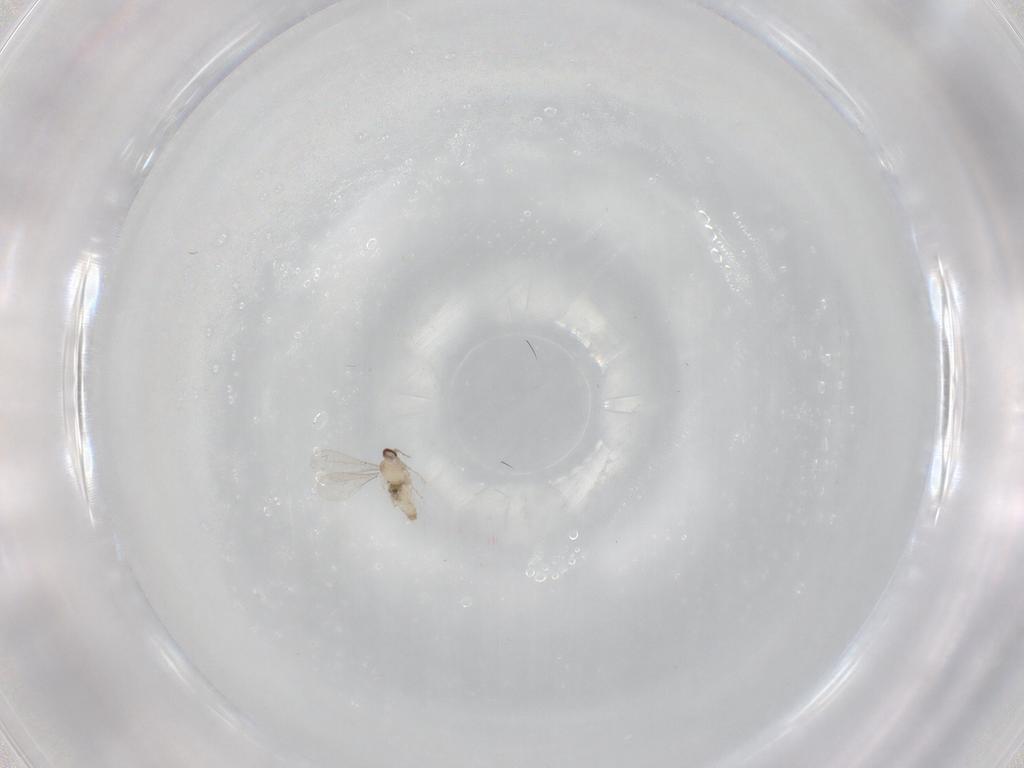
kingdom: Animalia
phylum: Arthropoda
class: Insecta
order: Diptera
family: Cecidomyiidae
